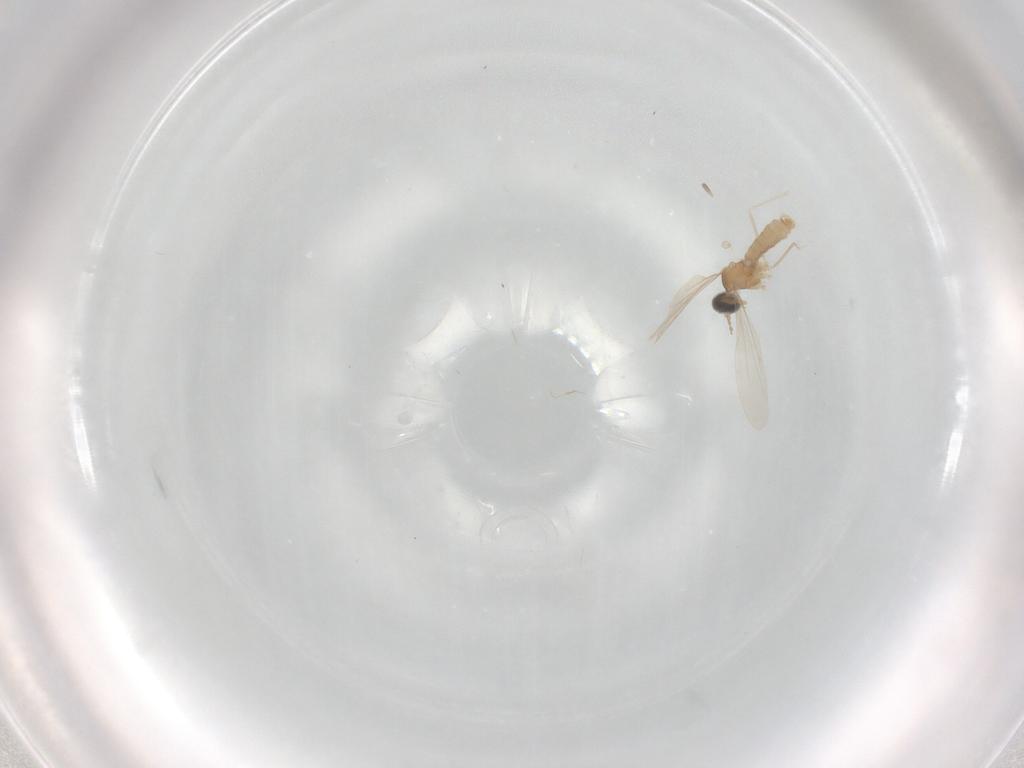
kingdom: Animalia
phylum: Arthropoda
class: Insecta
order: Diptera
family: Cecidomyiidae
